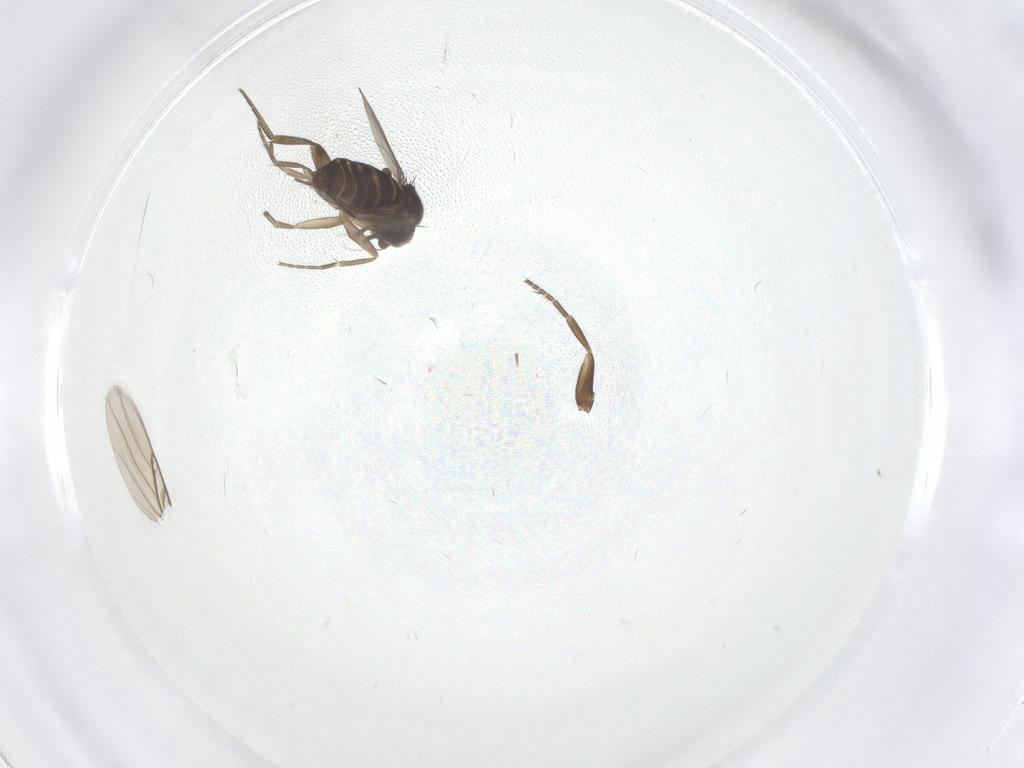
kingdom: Animalia
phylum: Arthropoda
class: Insecta
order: Diptera
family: Phoridae
